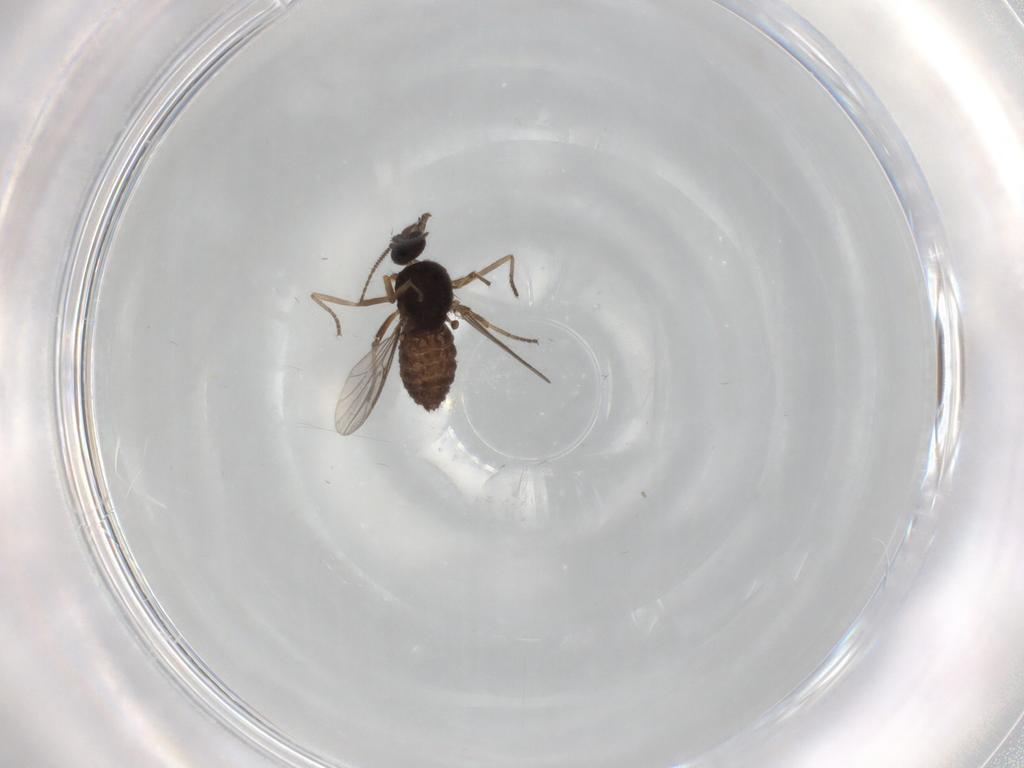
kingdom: Animalia
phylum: Arthropoda
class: Insecta
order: Diptera
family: Ceratopogonidae
